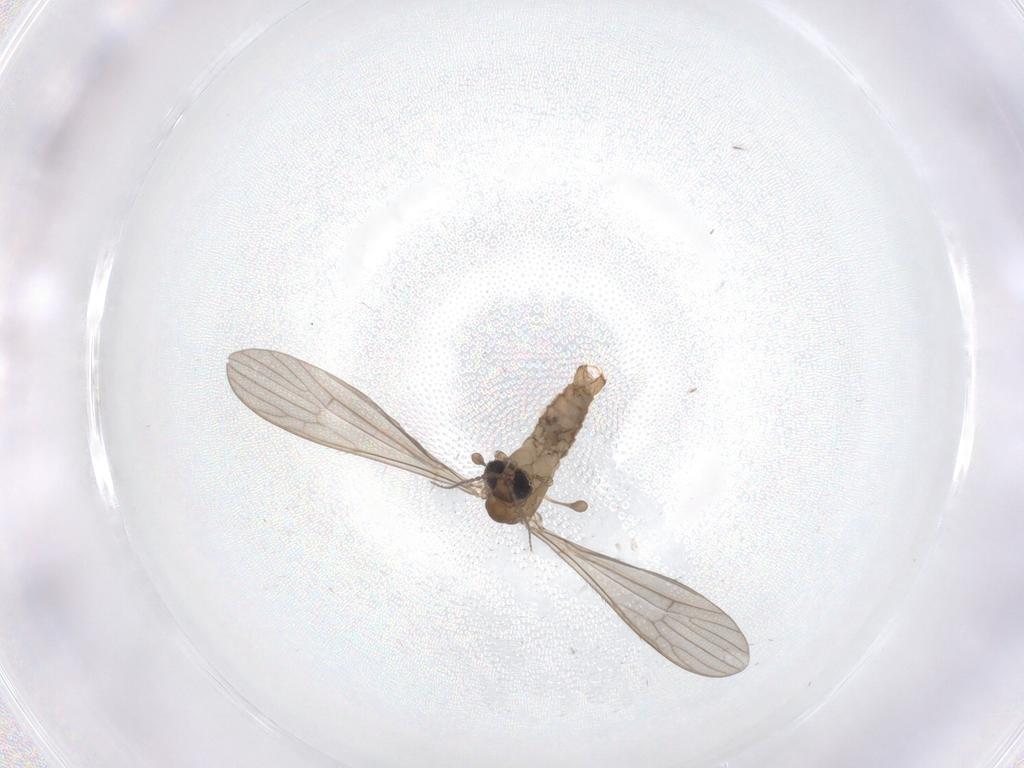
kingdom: Animalia
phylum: Arthropoda
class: Insecta
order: Diptera
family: Limoniidae
